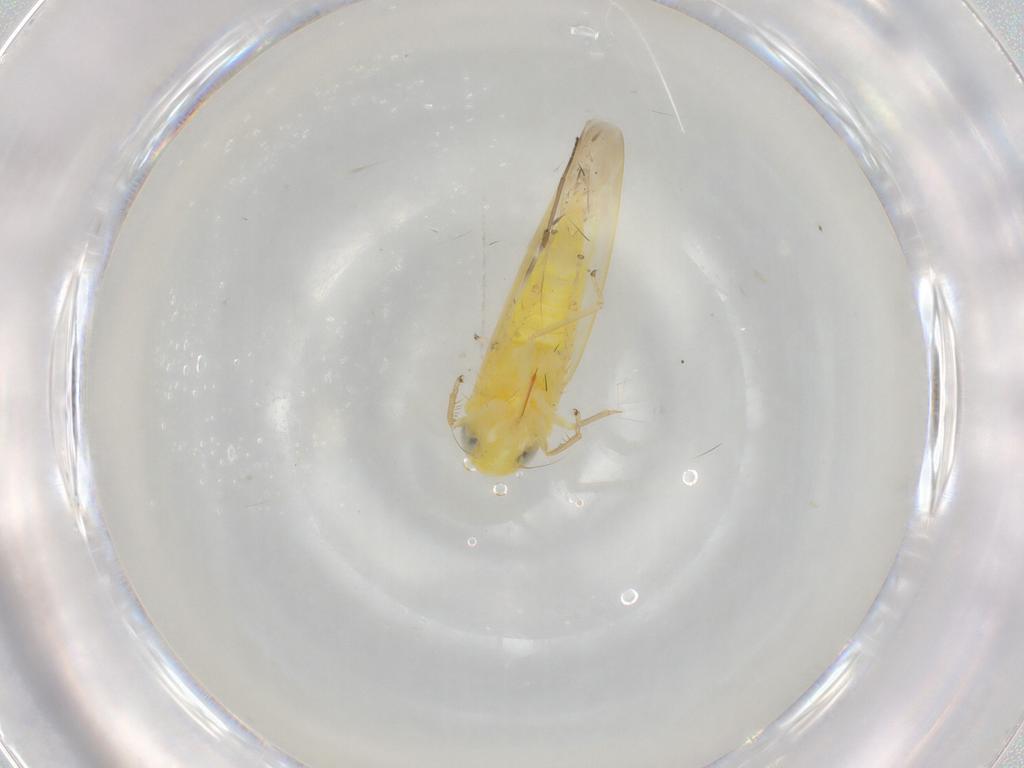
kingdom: Animalia
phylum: Arthropoda
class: Insecta
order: Hemiptera
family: Cicadellidae
